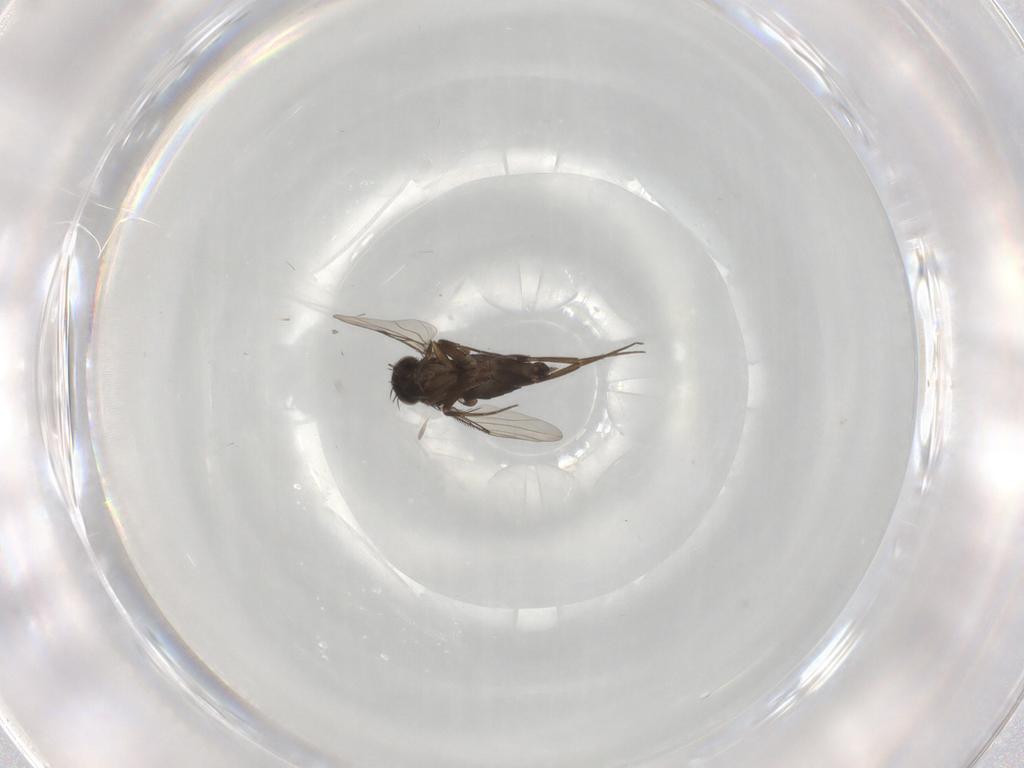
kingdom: Animalia
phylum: Arthropoda
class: Insecta
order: Diptera
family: Phoridae
